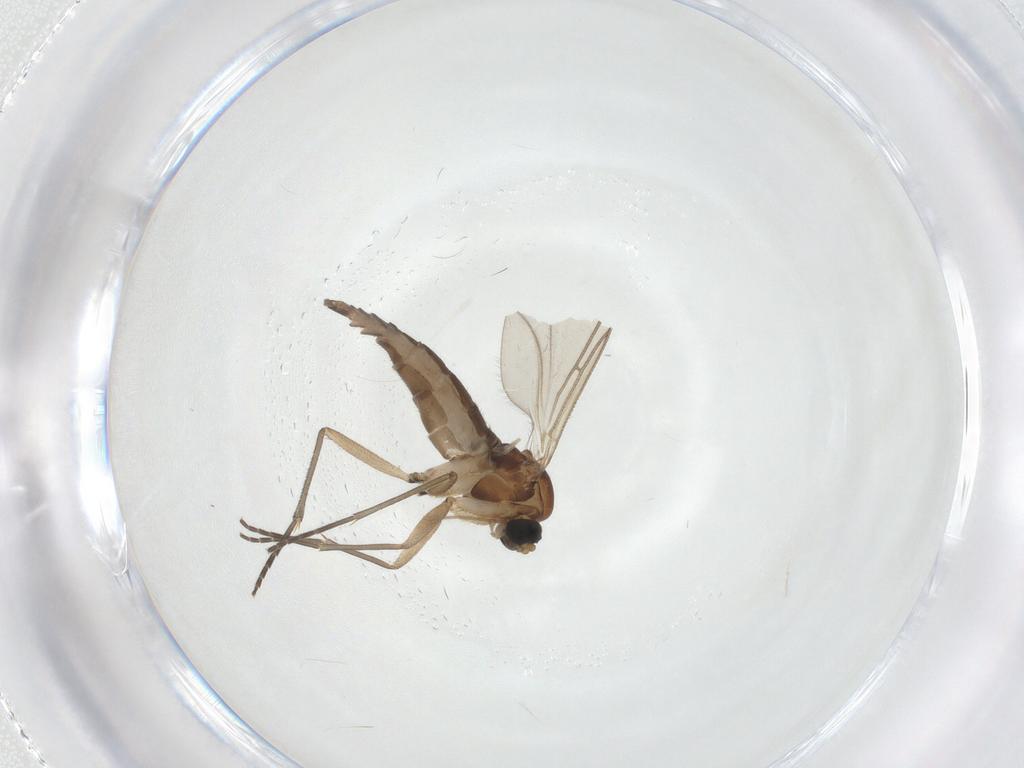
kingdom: Animalia
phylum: Arthropoda
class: Insecta
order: Diptera
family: Sciaridae
